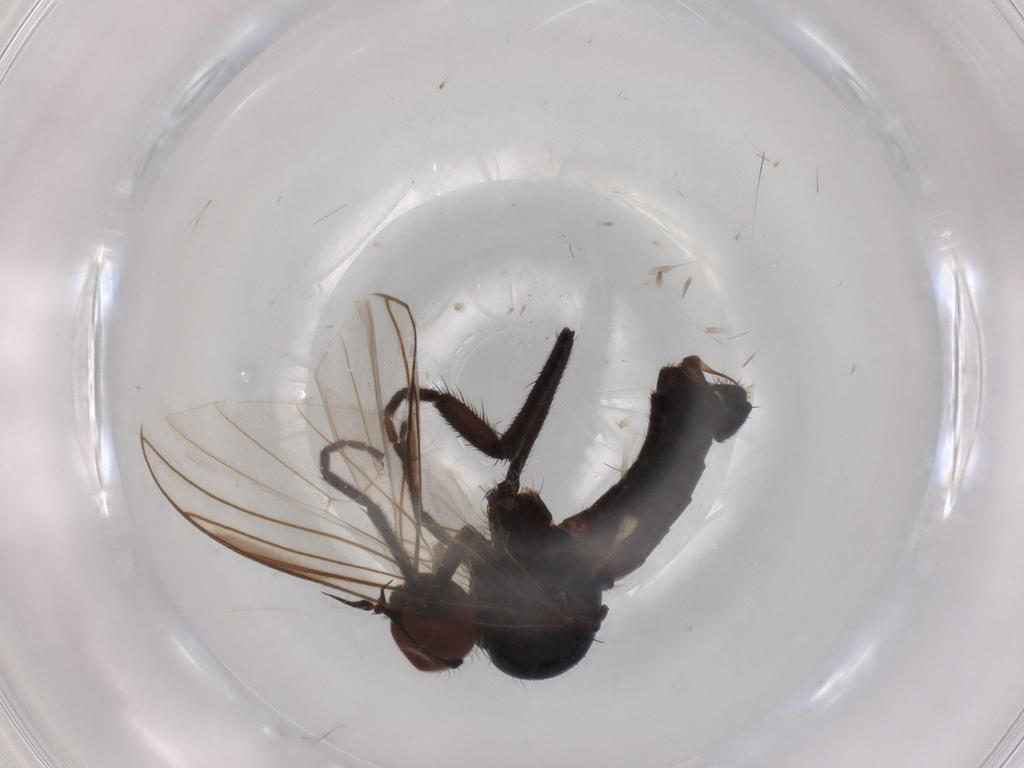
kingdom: Animalia
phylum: Arthropoda
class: Insecta
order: Diptera
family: Empididae
